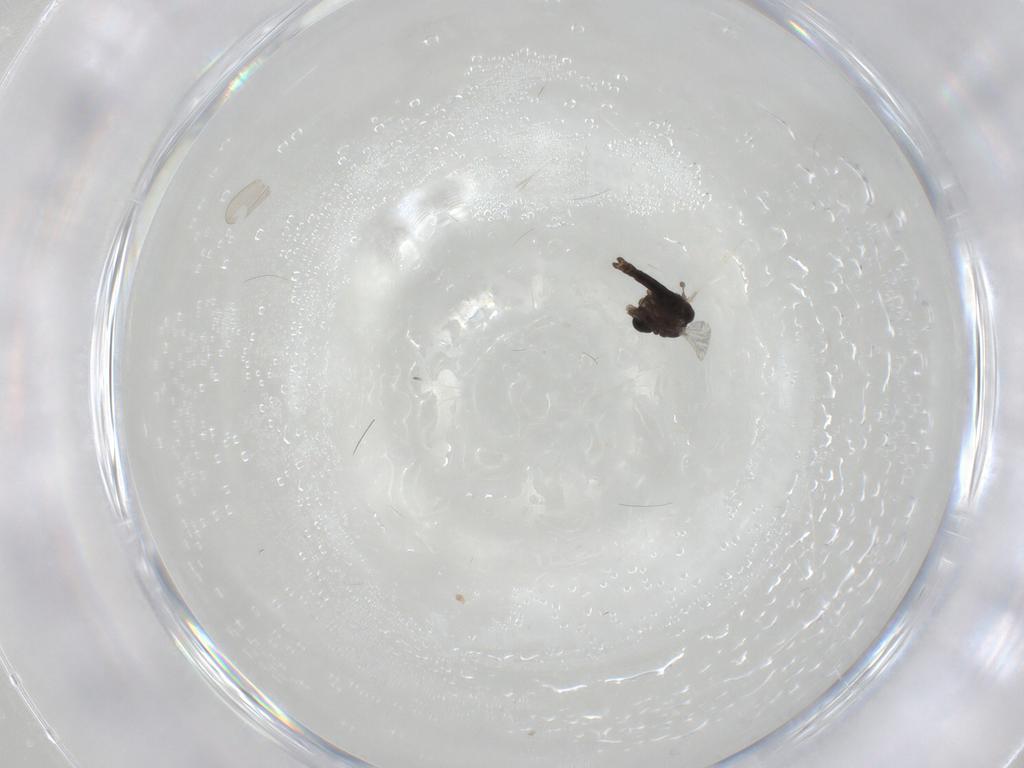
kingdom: Animalia
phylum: Arthropoda
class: Insecta
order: Diptera
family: Chironomidae
